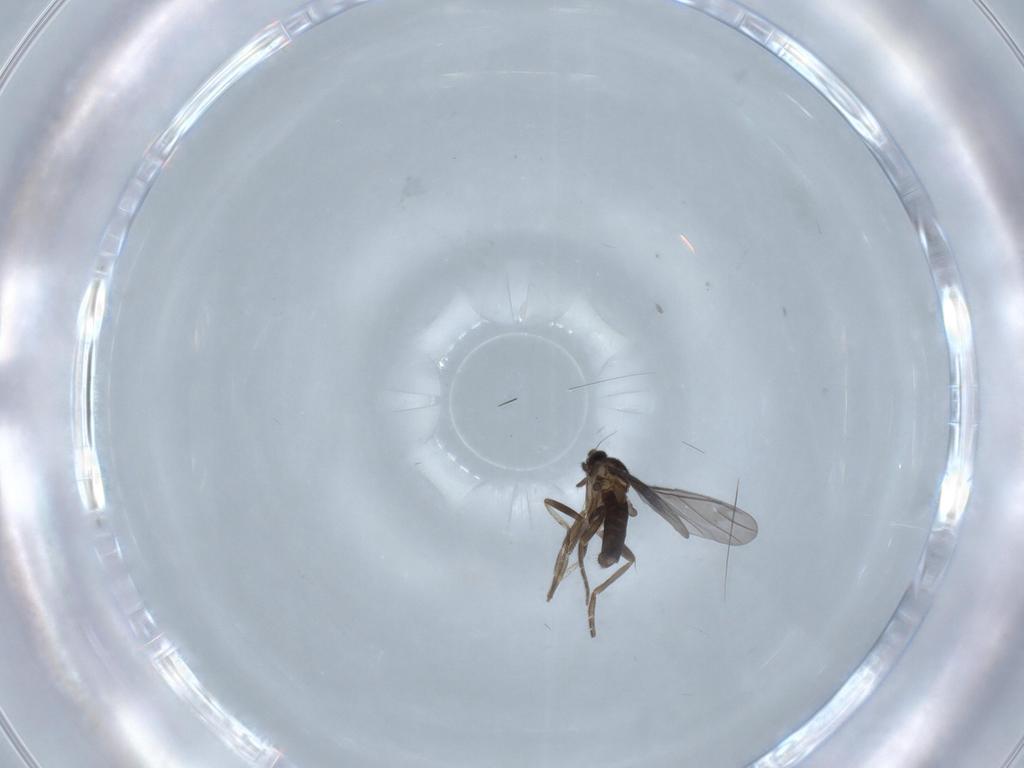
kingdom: Animalia
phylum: Arthropoda
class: Insecta
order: Diptera
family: Phoridae
